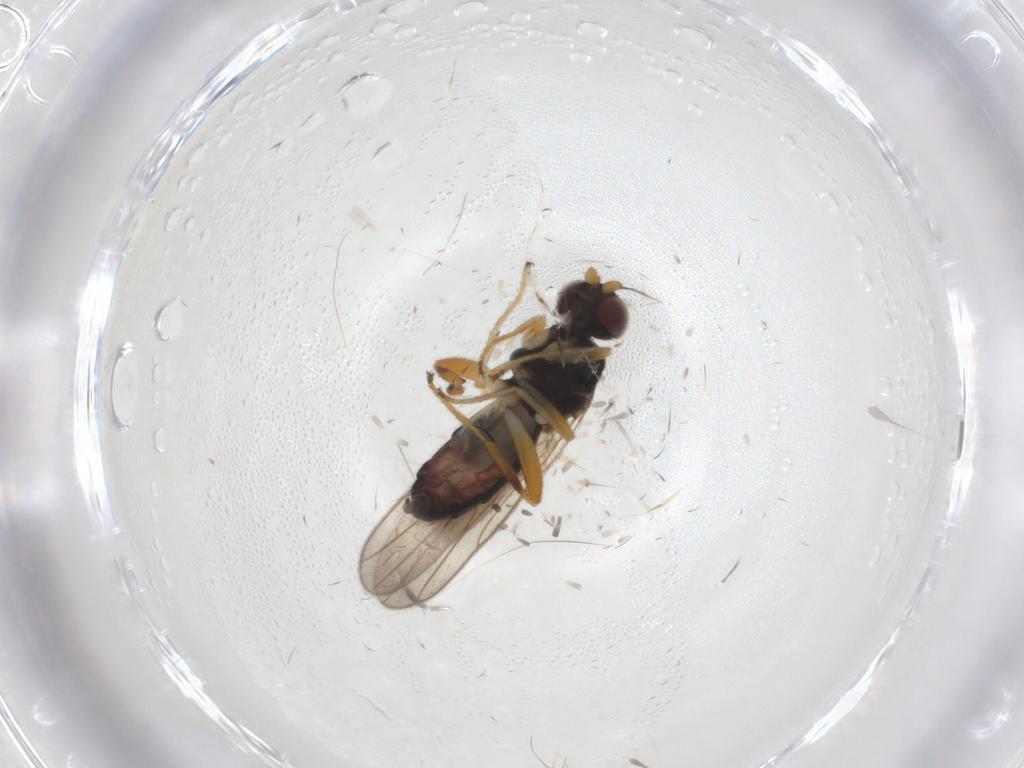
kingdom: Animalia
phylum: Arthropoda
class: Insecta
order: Diptera
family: Chloropidae
